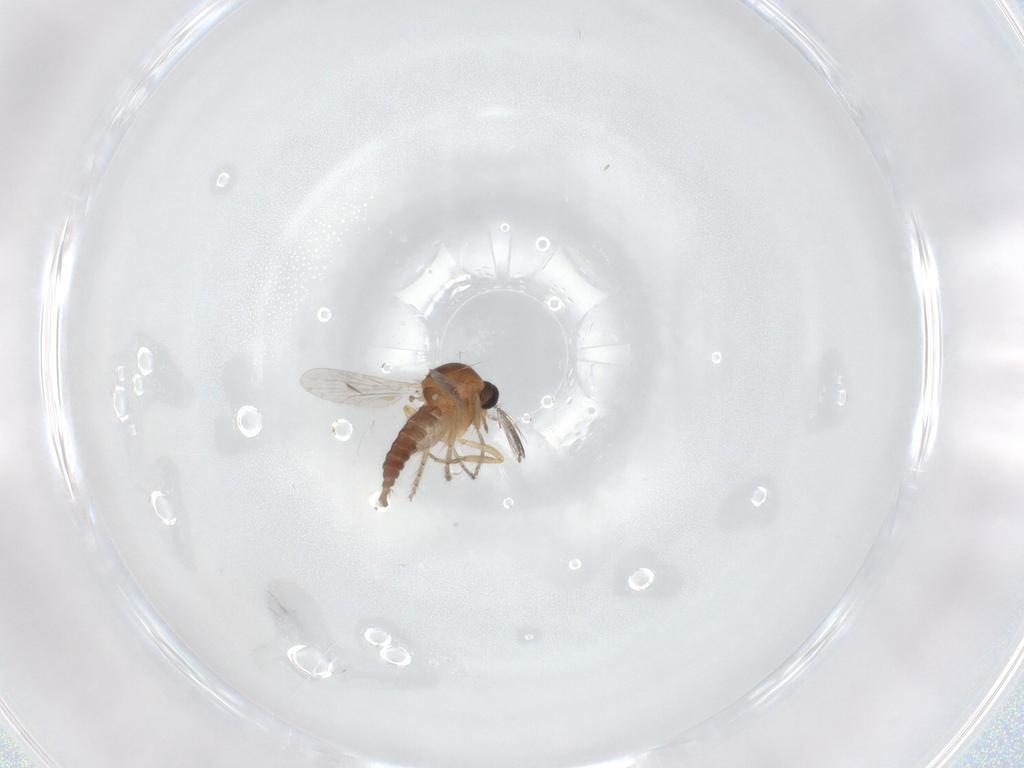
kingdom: Animalia
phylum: Arthropoda
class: Insecta
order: Diptera
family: Ceratopogonidae
